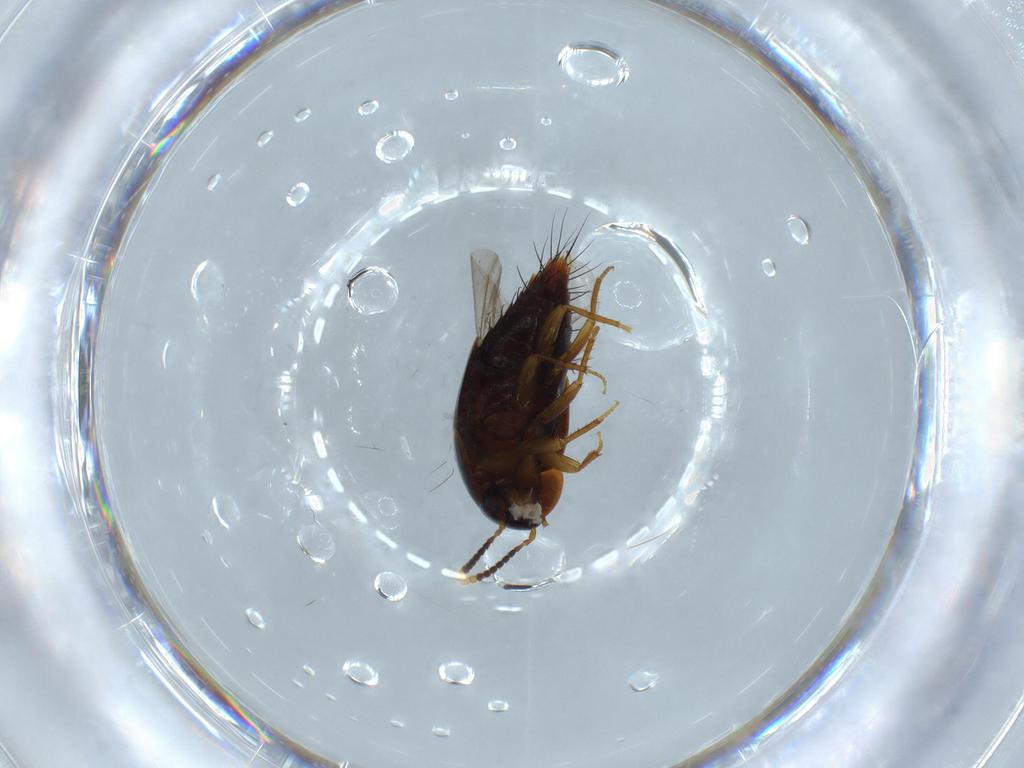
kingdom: Animalia
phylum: Arthropoda
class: Insecta
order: Coleoptera
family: Staphylinidae
